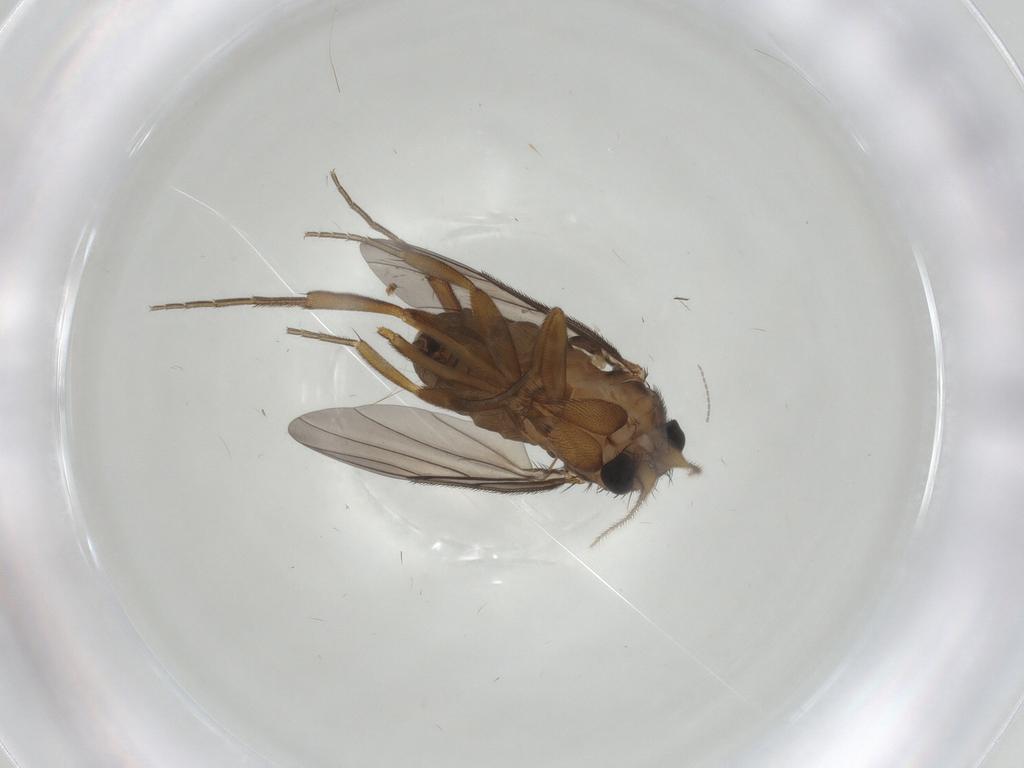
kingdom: Animalia
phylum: Arthropoda
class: Insecta
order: Diptera
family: Cecidomyiidae
